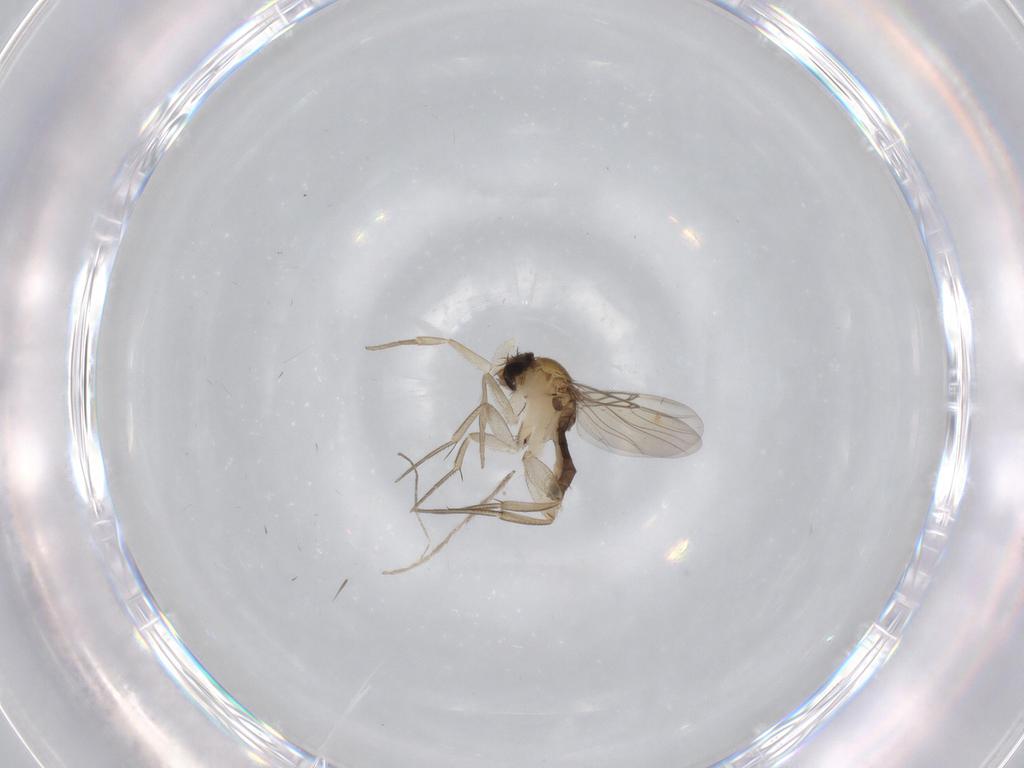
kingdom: Animalia
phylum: Arthropoda
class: Insecta
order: Diptera
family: Cecidomyiidae
